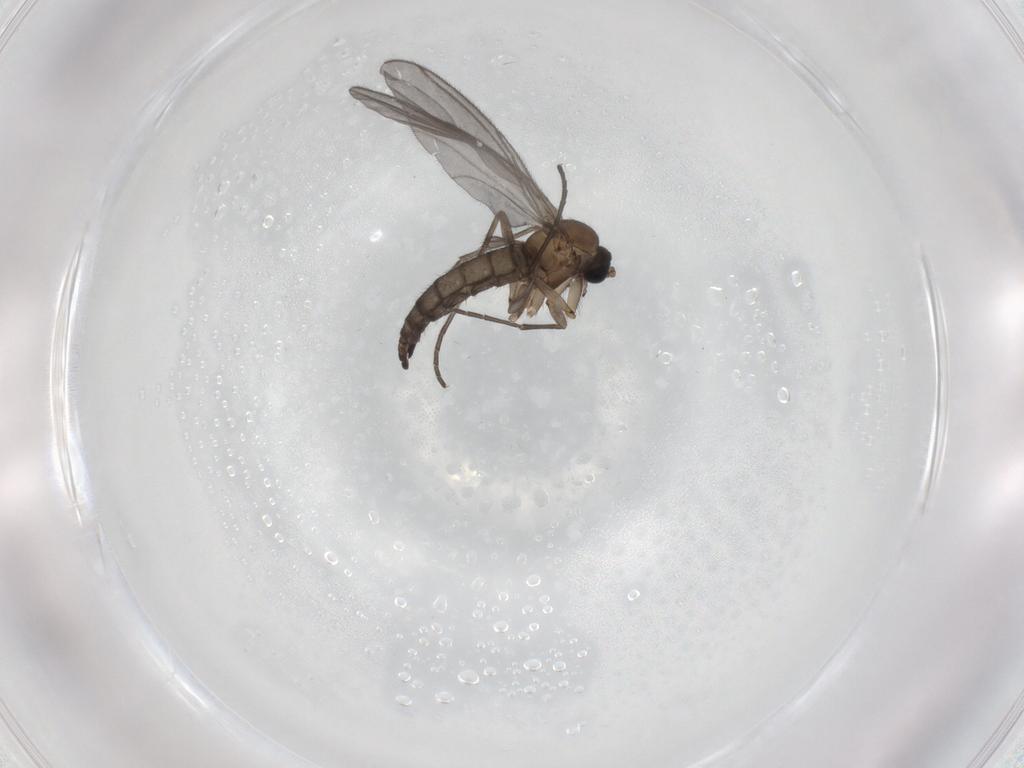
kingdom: Animalia
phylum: Arthropoda
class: Insecta
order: Diptera
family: Sciaridae
